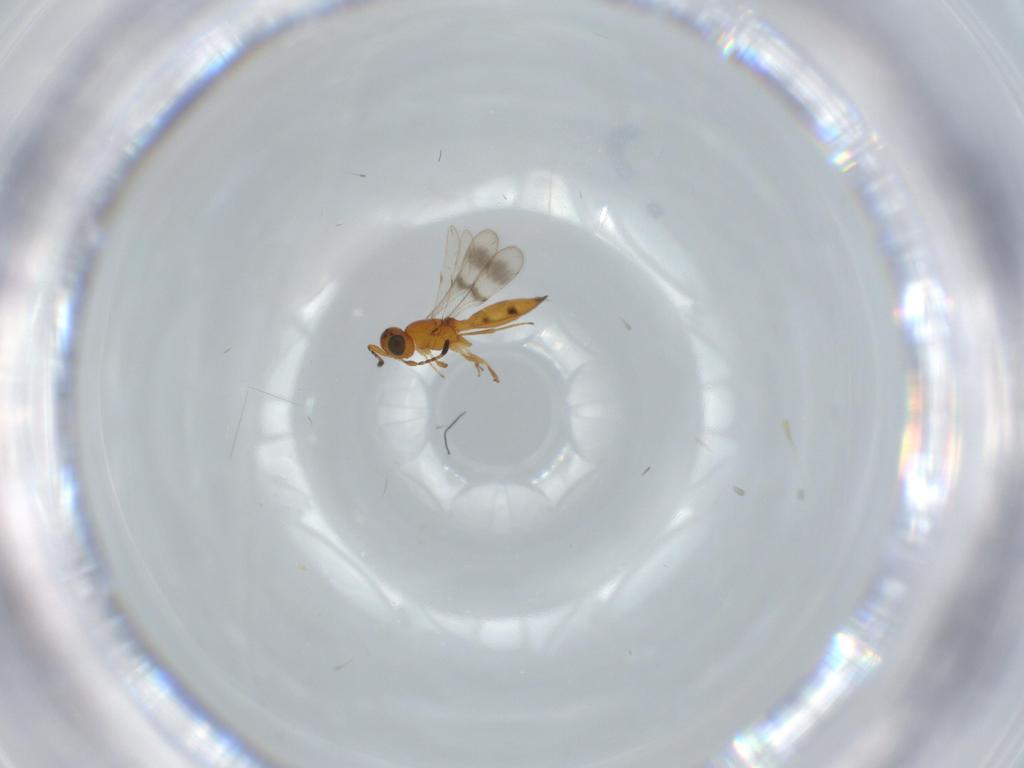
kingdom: Animalia
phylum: Arthropoda
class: Insecta
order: Hymenoptera
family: Scelionidae
